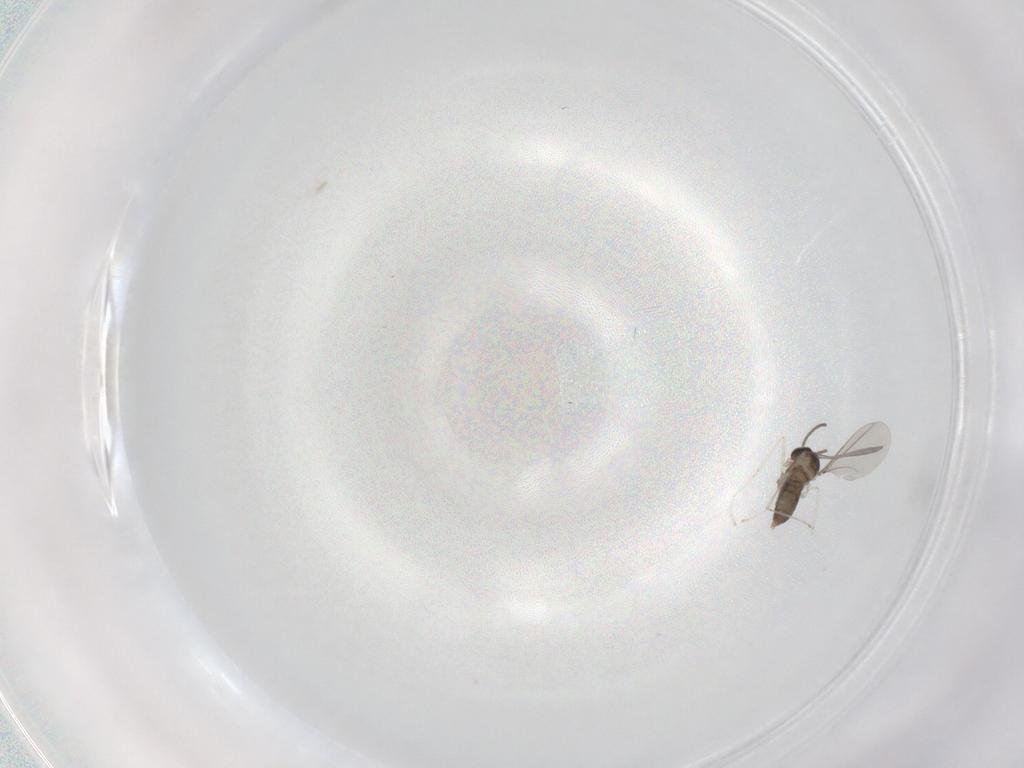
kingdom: Animalia
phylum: Arthropoda
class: Insecta
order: Diptera
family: Cecidomyiidae
